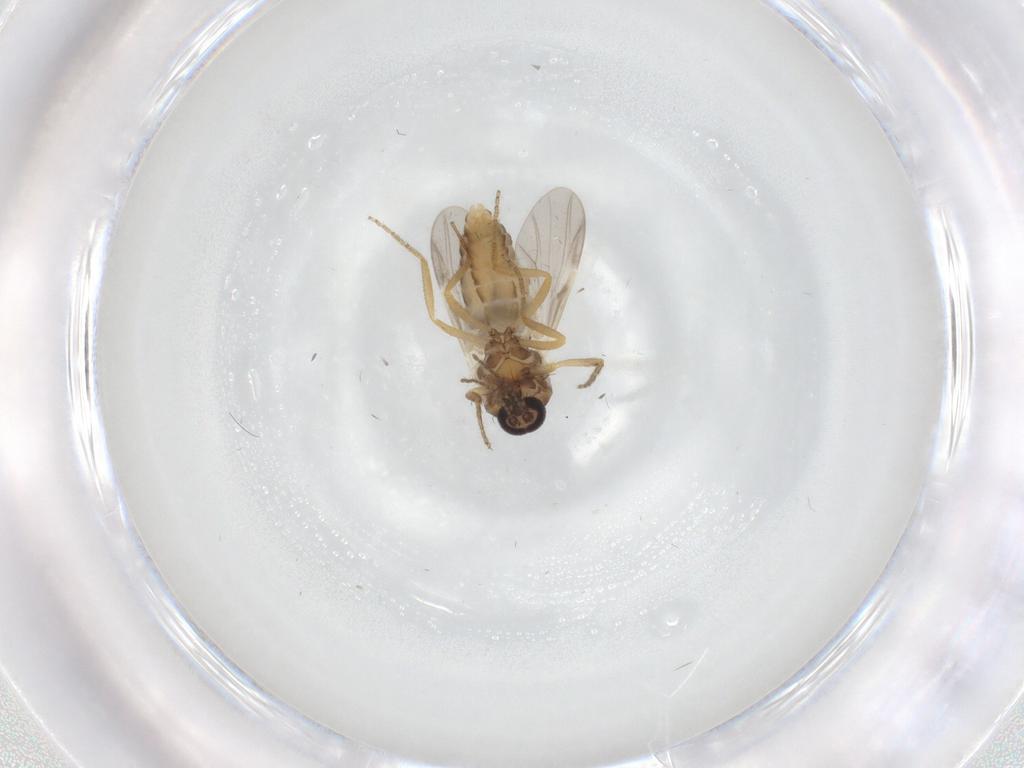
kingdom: Animalia
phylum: Arthropoda
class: Insecta
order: Diptera
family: Ceratopogonidae
